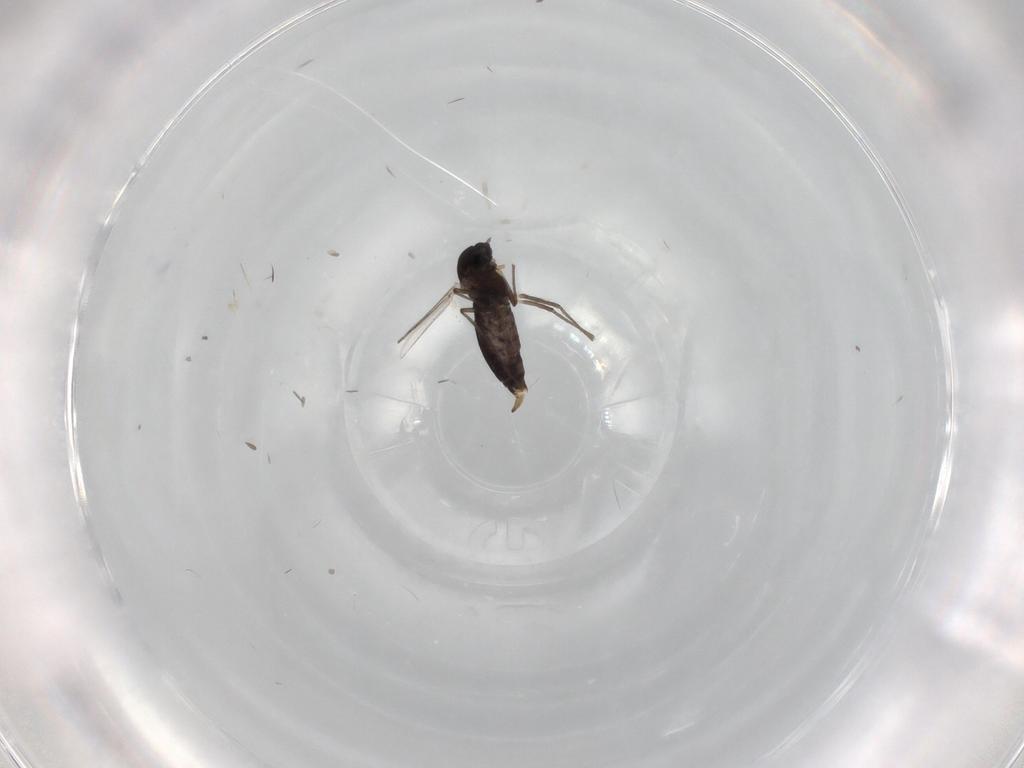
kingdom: Animalia
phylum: Arthropoda
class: Insecta
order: Diptera
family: Chironomidae
